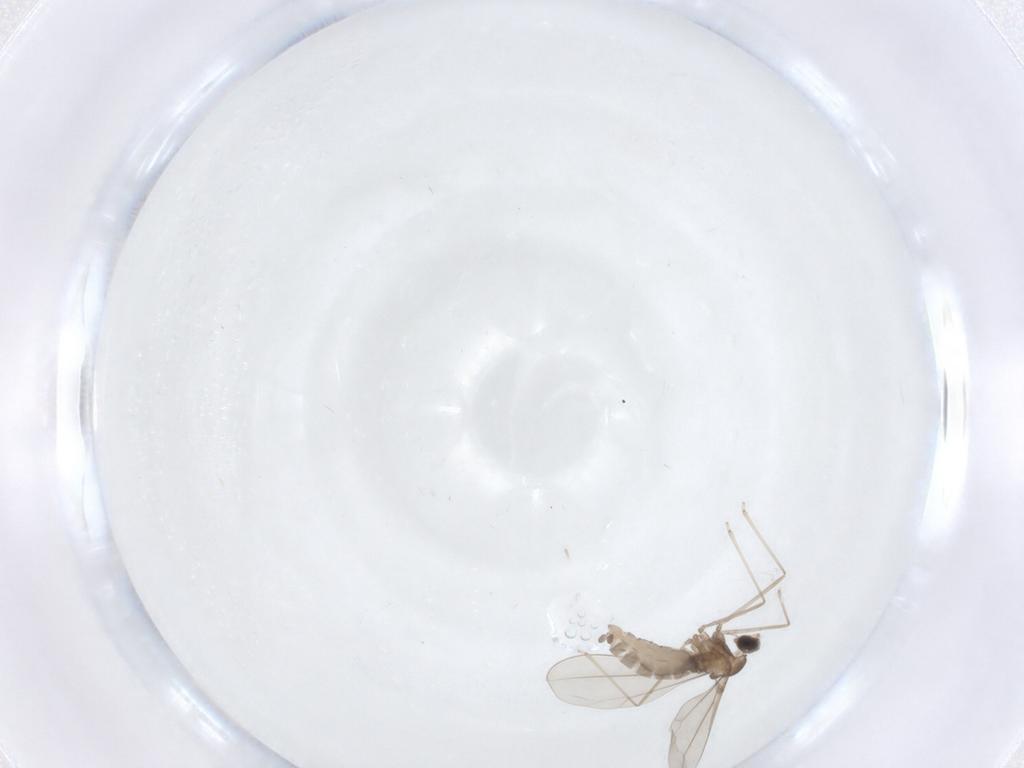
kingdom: Animalia
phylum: Arthropoda
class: Insecta
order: Diptera
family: Cecidomyiidae
